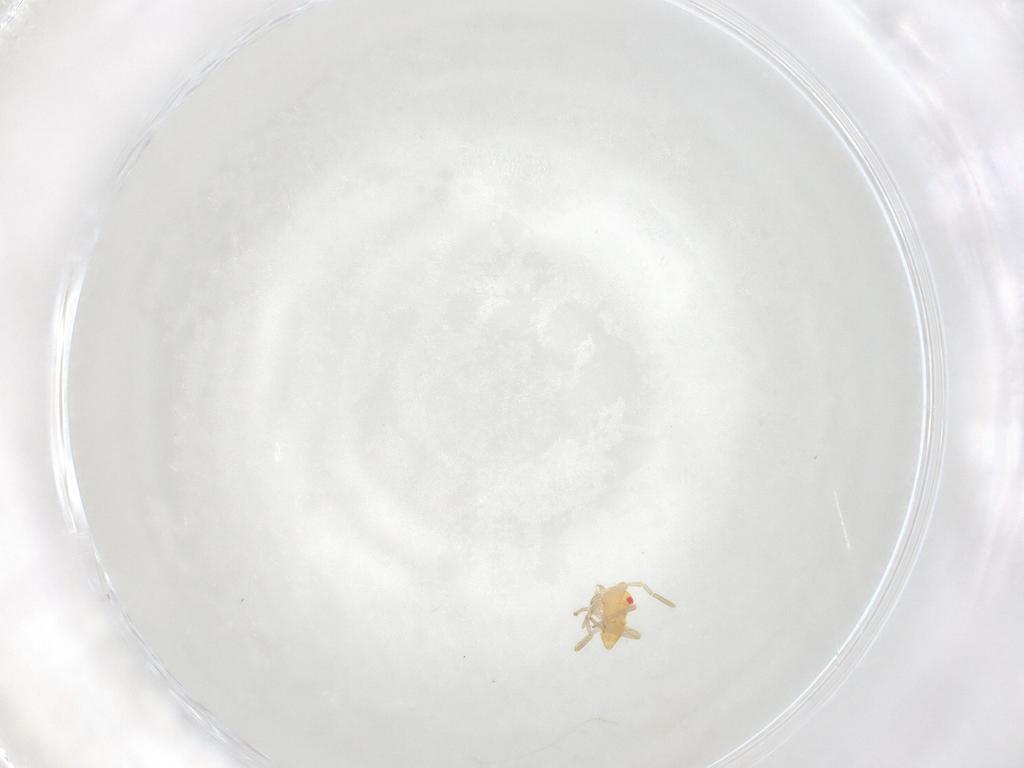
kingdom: Animalia
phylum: Arthropoda
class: Insecta
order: Hemiptera
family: Miridae
